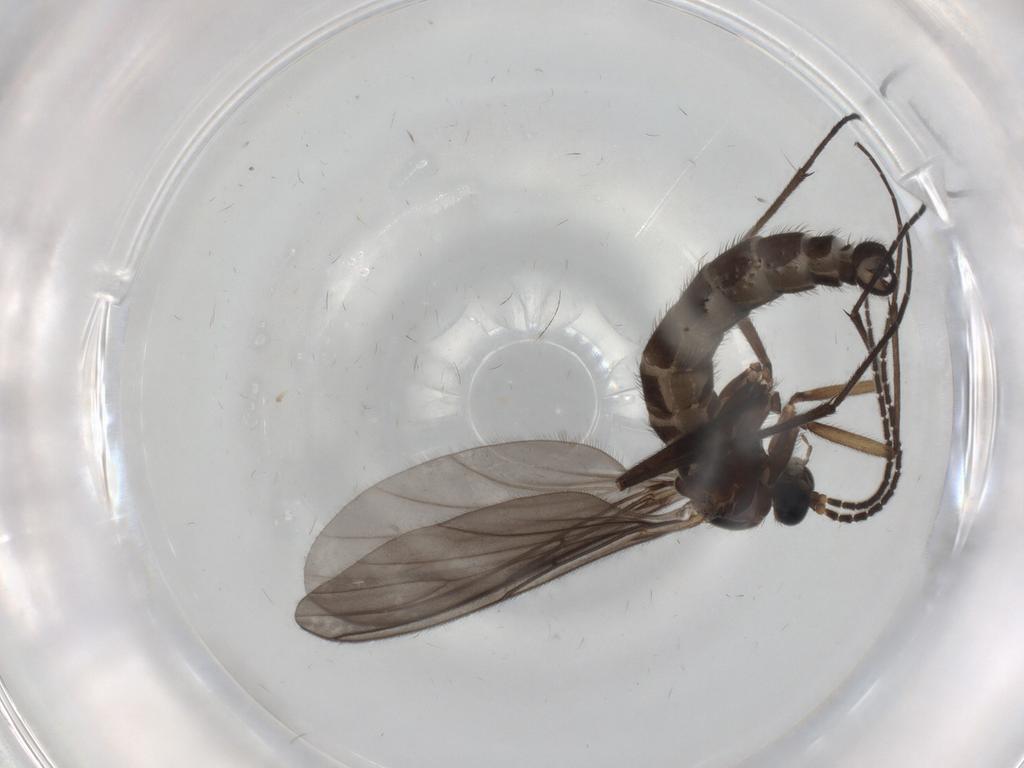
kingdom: Animalia
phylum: Arthropoda
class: Insecta
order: Diptera
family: Sciaridae
